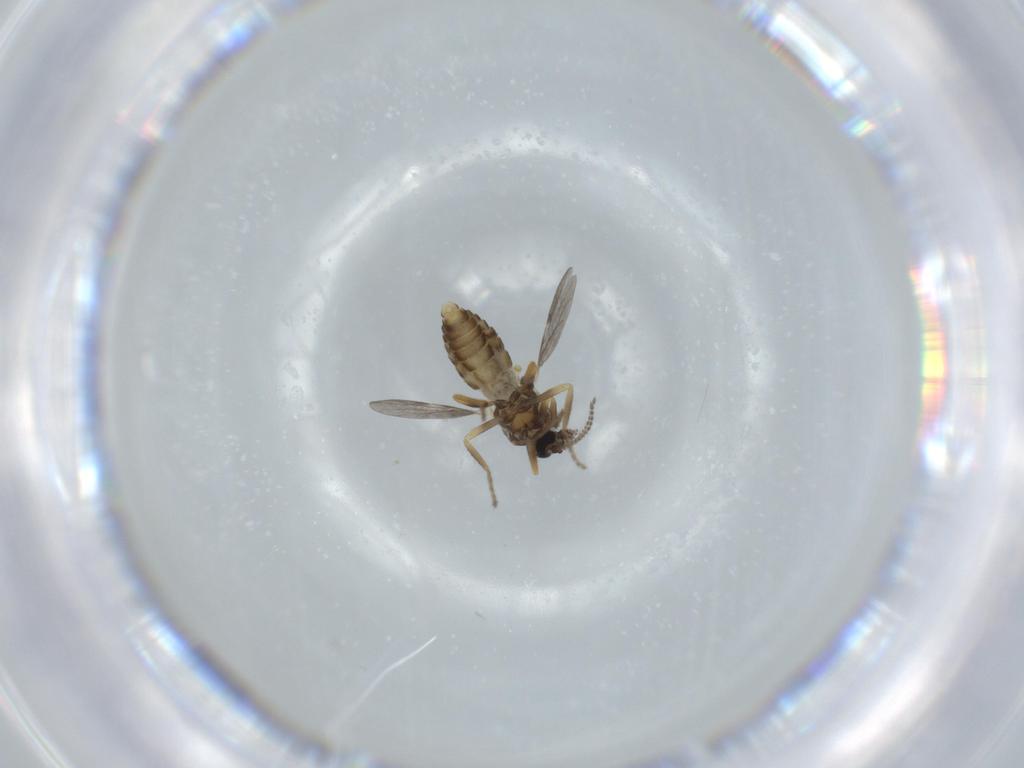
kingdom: Animalia
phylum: Arthropoda
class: Insecta
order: Diptera
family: Ceratopogonidae
